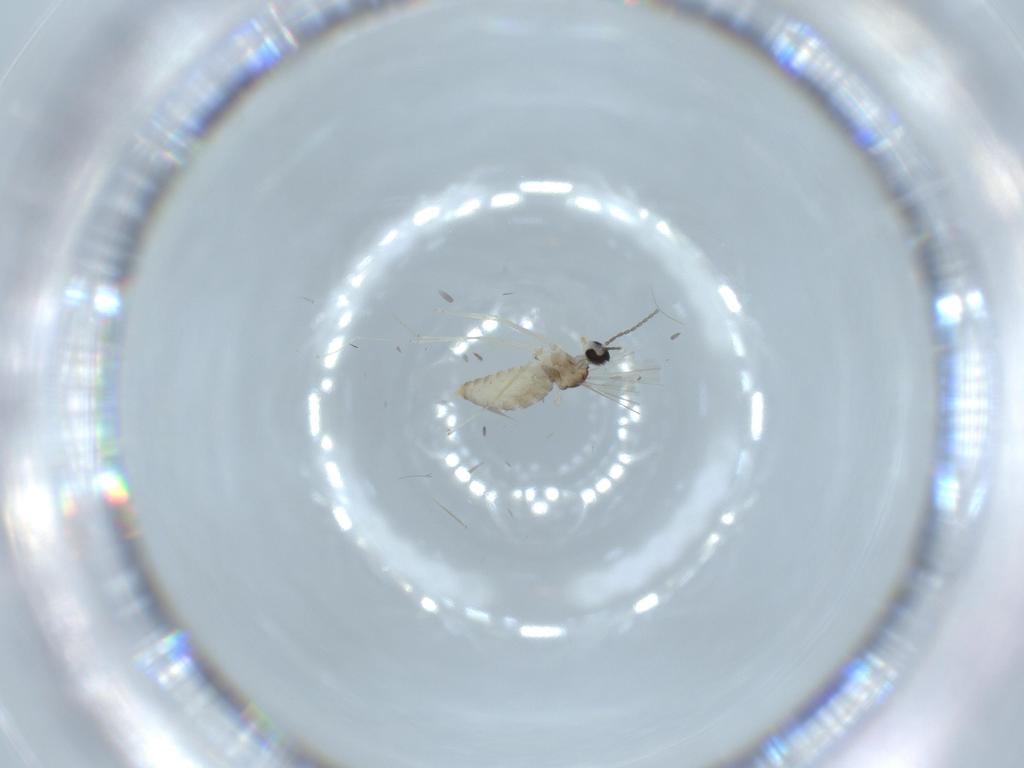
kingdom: Animalia
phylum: Arthropoda
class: Insecta
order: Diptera
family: Cecidomyiidae
